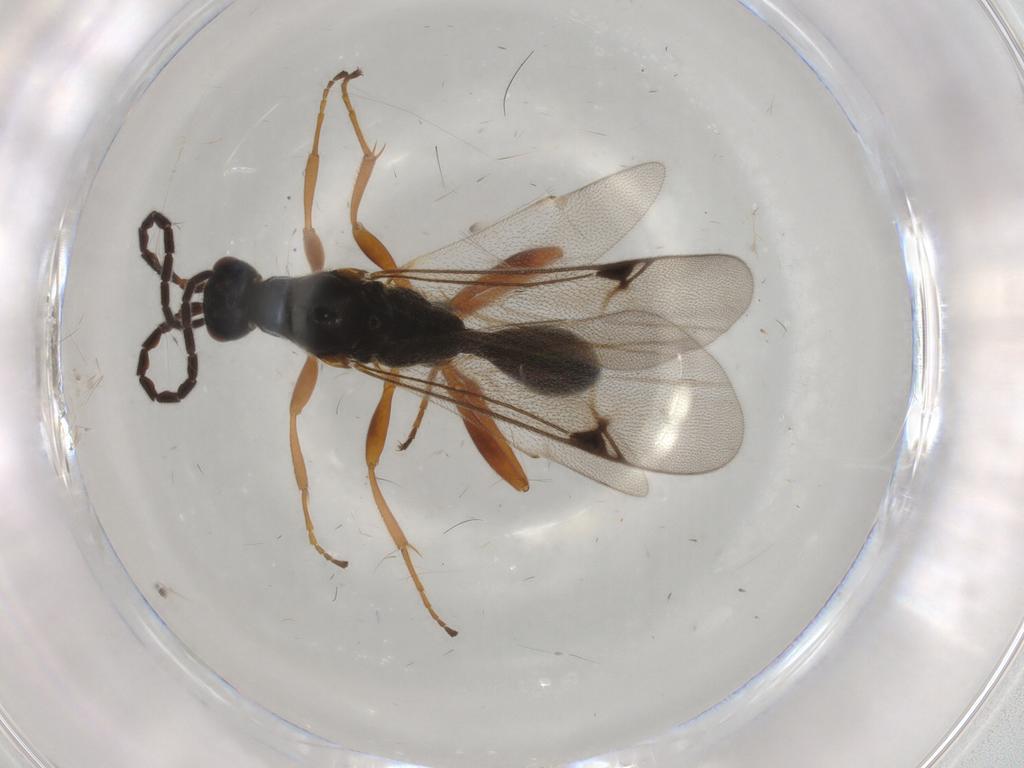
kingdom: Animalia
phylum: Arthropoda
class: Insecta
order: Hymenoptera
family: Proctotrupidae
